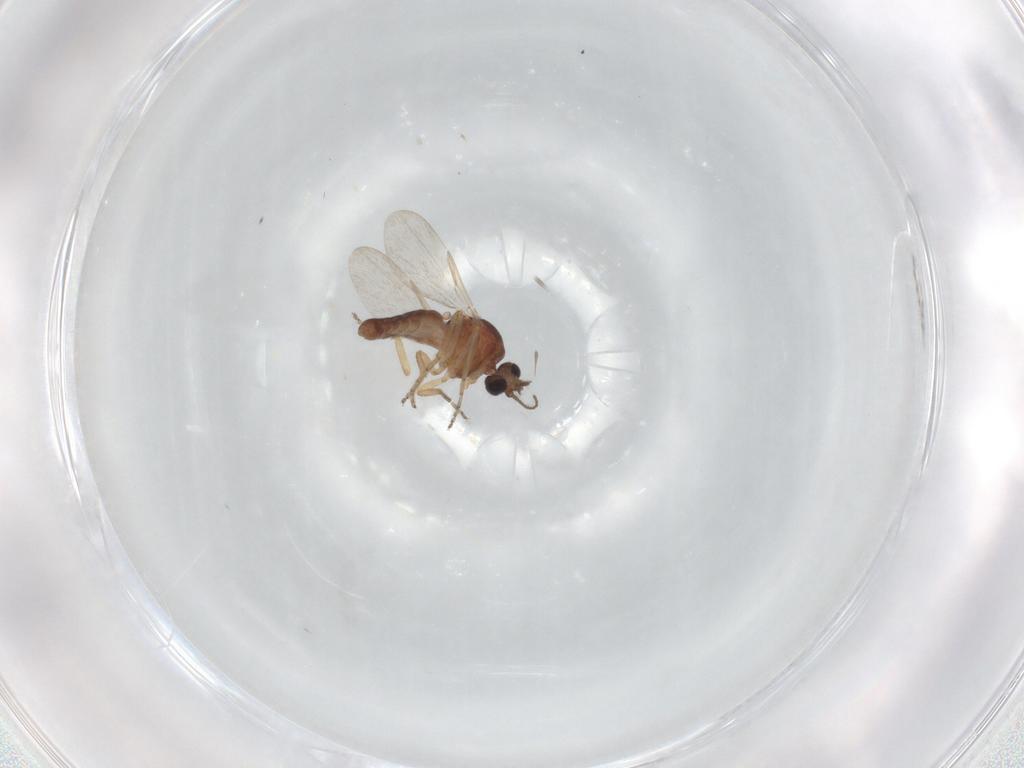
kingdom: Animalia
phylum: Arthropoda
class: Insecta
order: Diptera
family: Ceratopogonidae
